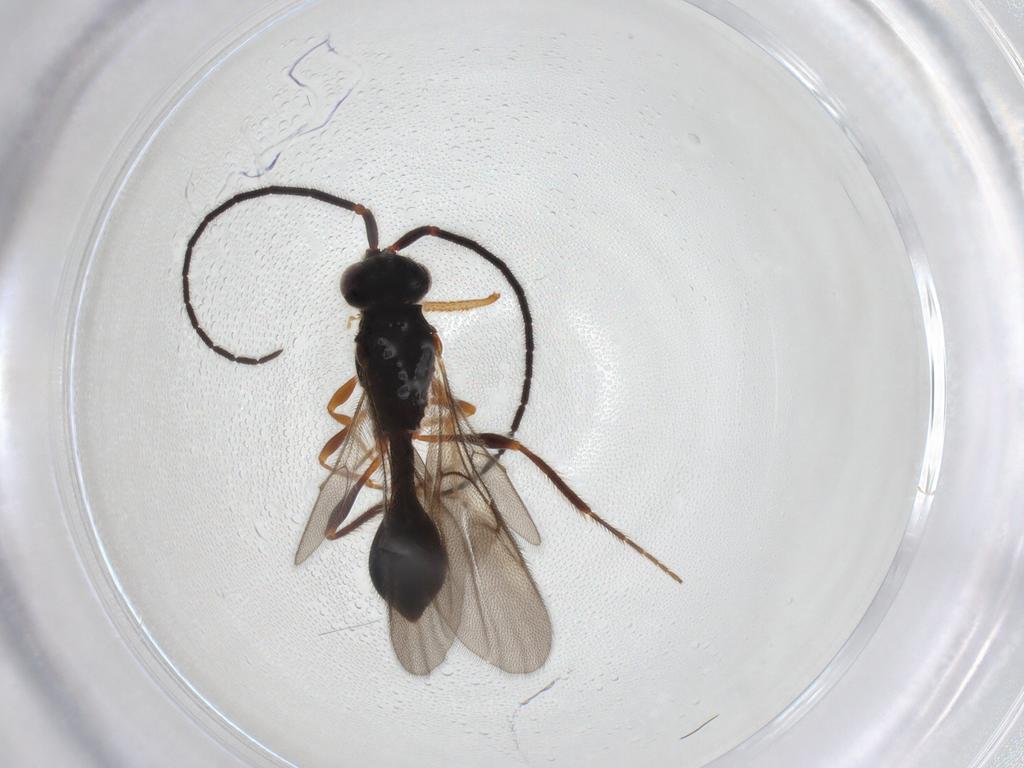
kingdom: Animalia
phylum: Arthropoda
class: Insecta
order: Hymenoptera
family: Diapriidae
